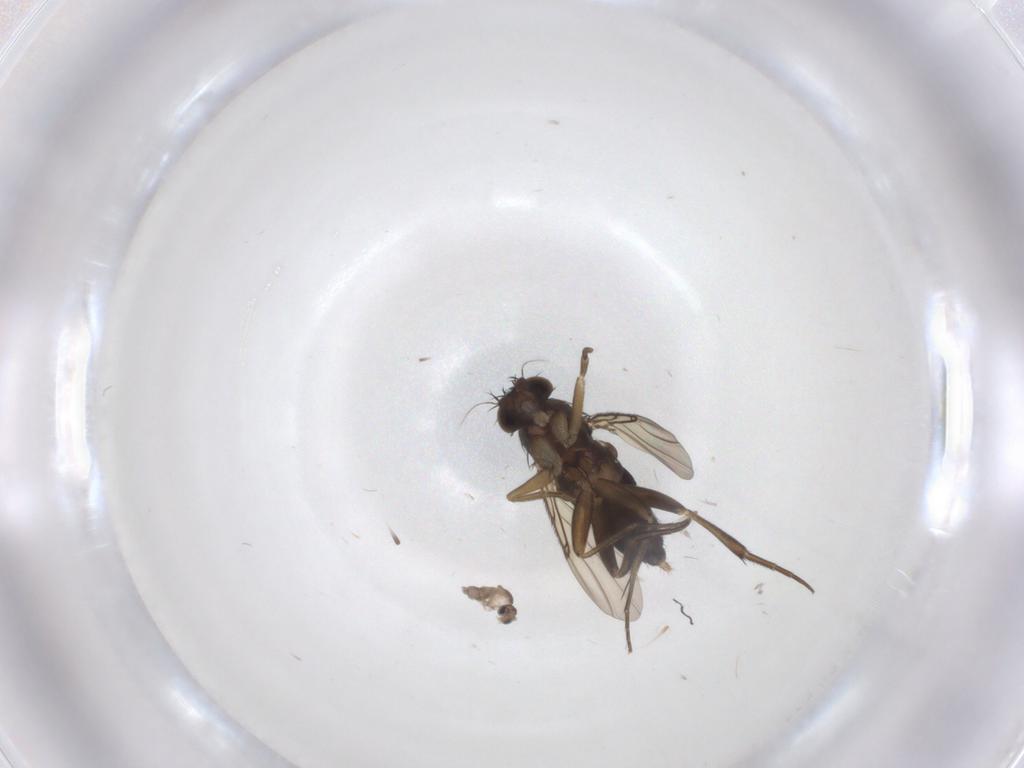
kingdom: Animalia
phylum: Arthropoda
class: Insecta
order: Diptera
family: Phoridae
